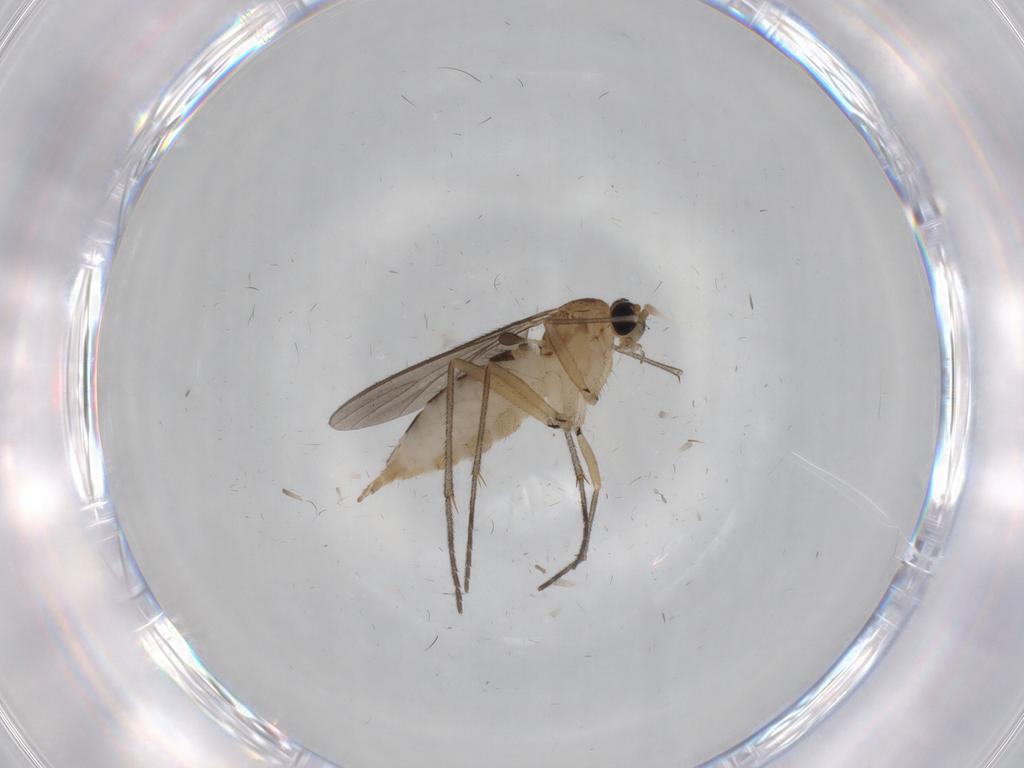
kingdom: Animalia
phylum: Arthropoda
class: Insecta
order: Diptera
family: Sciaridae
